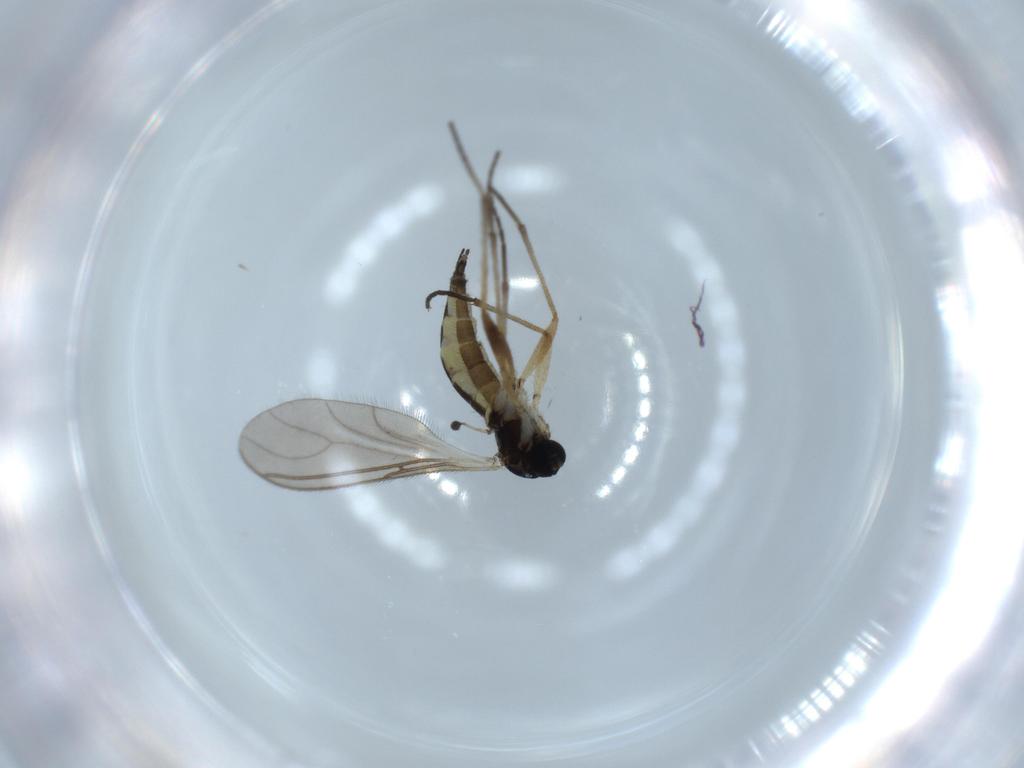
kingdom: Animalia
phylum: Arthropoda
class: Insecta
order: Diptera
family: Sciaridae
